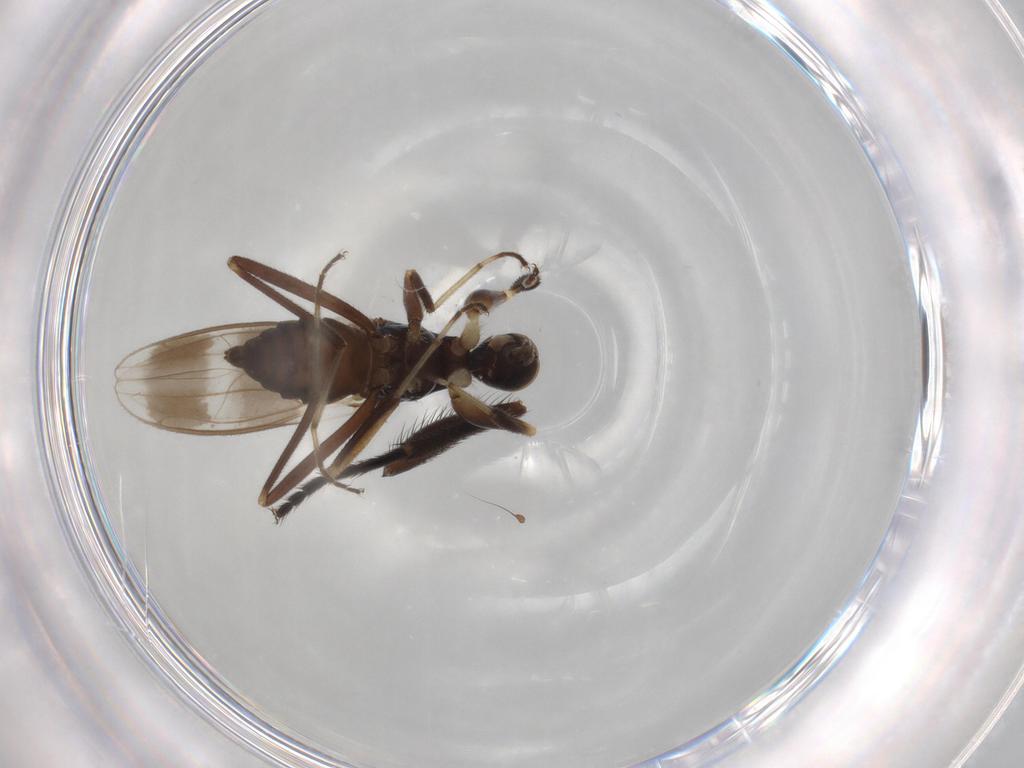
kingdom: Animalia
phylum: Arthropoda
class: Insecta
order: Diptera
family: Hybotidae
